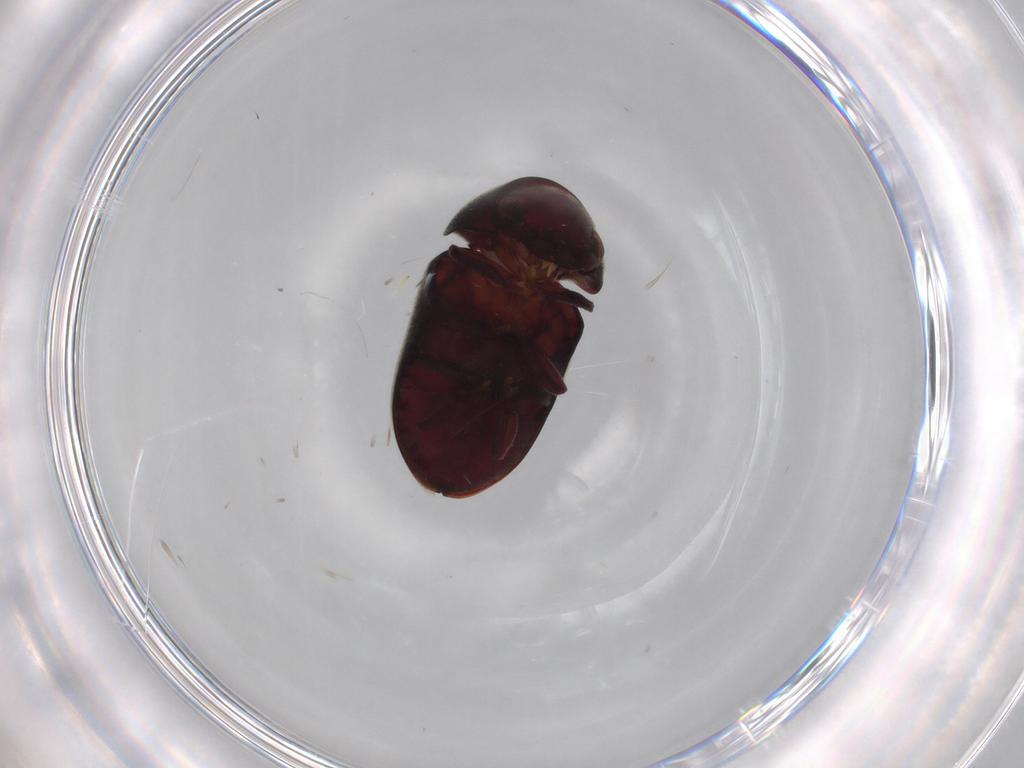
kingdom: Animalia
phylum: Arthropoda
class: Insecta
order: Coleoptera
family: Ptinidae
